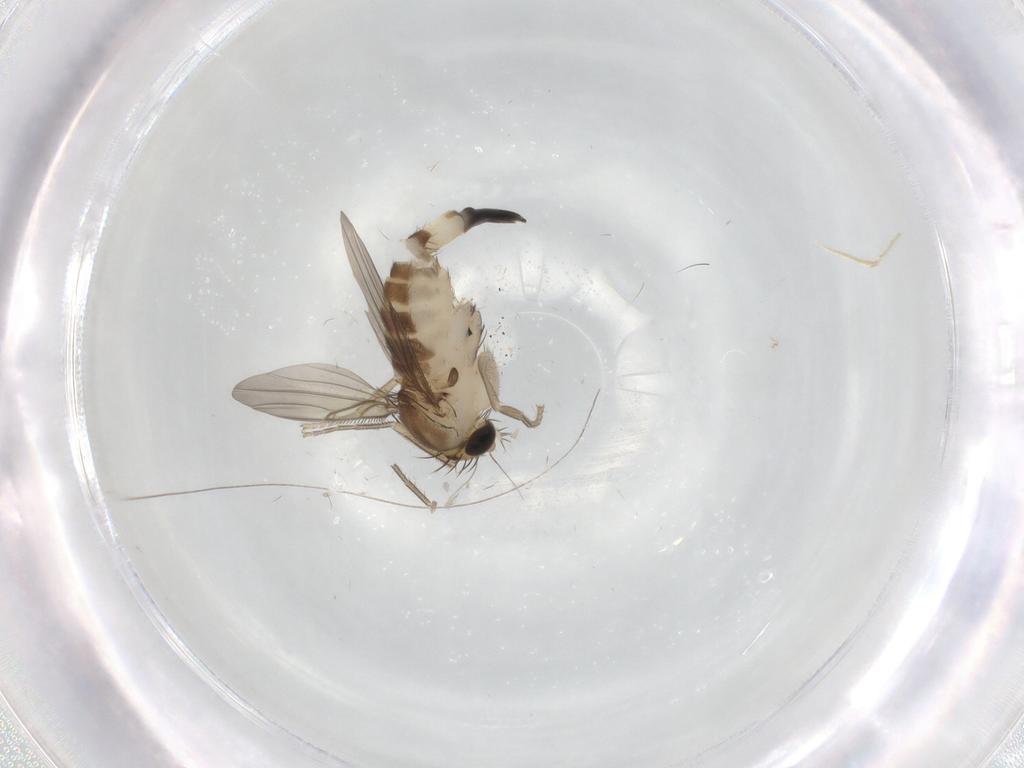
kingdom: Animalia
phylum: Arthropoda
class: Insecta
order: Diptera
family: Phoridae
